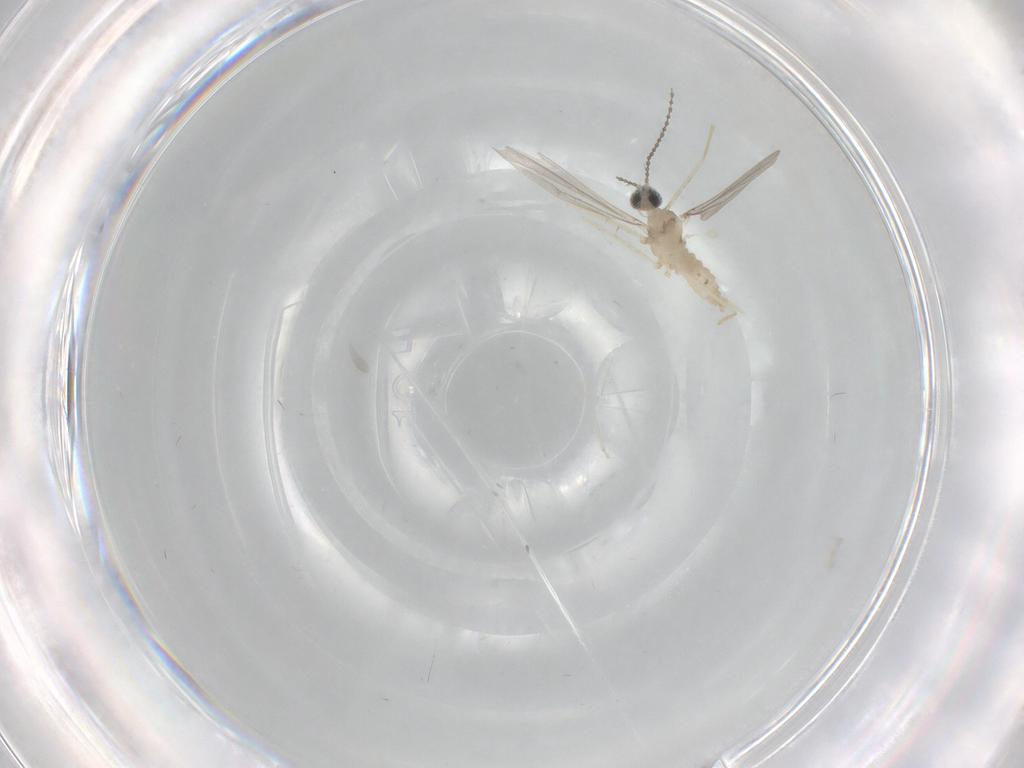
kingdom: Animalia
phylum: Arthropoda
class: Insecta
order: Diptera
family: Cecidomyiidae
